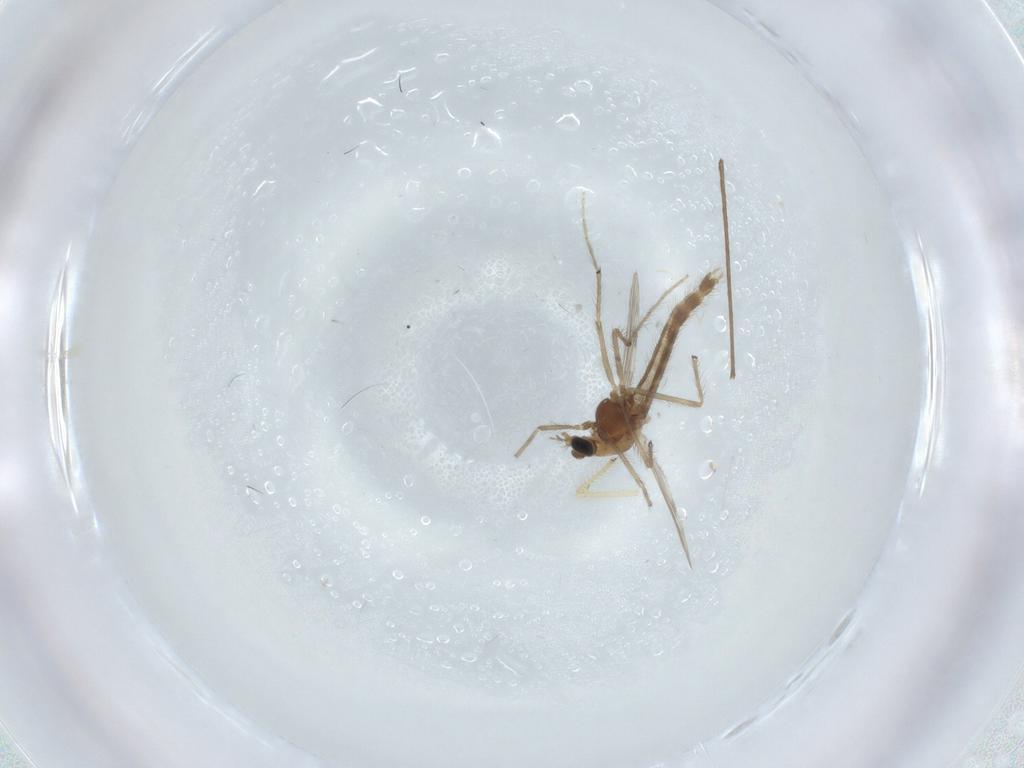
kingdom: Animalia
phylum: Arthropoda
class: Insecta
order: Diptera
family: Chironomidae
